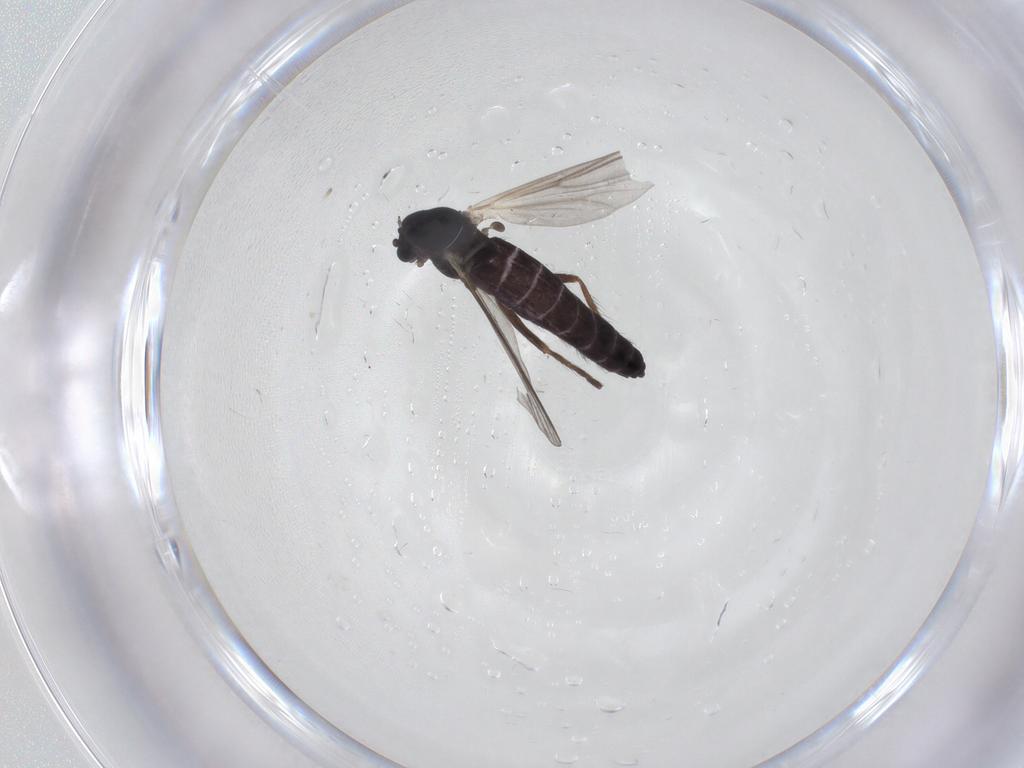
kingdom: Animalia
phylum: Arthropoda
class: Insecta
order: Diptera
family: Chironomidae
